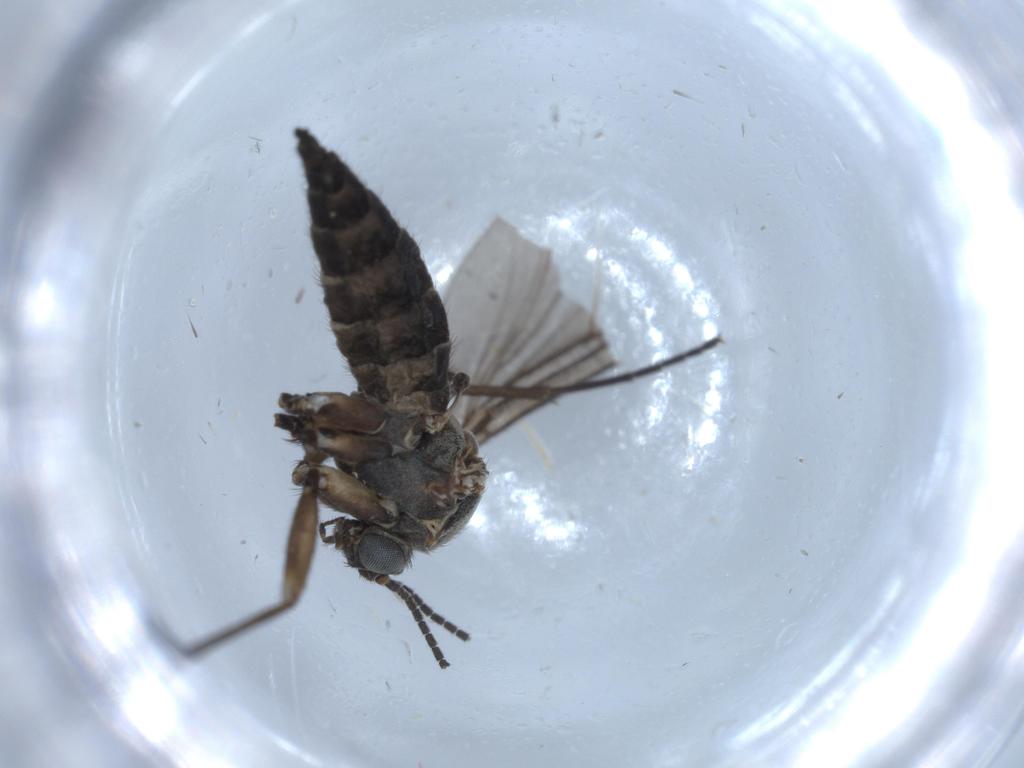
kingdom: Animalia
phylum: Arthropoda
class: Insecta
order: Diptera
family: Sciaridae
